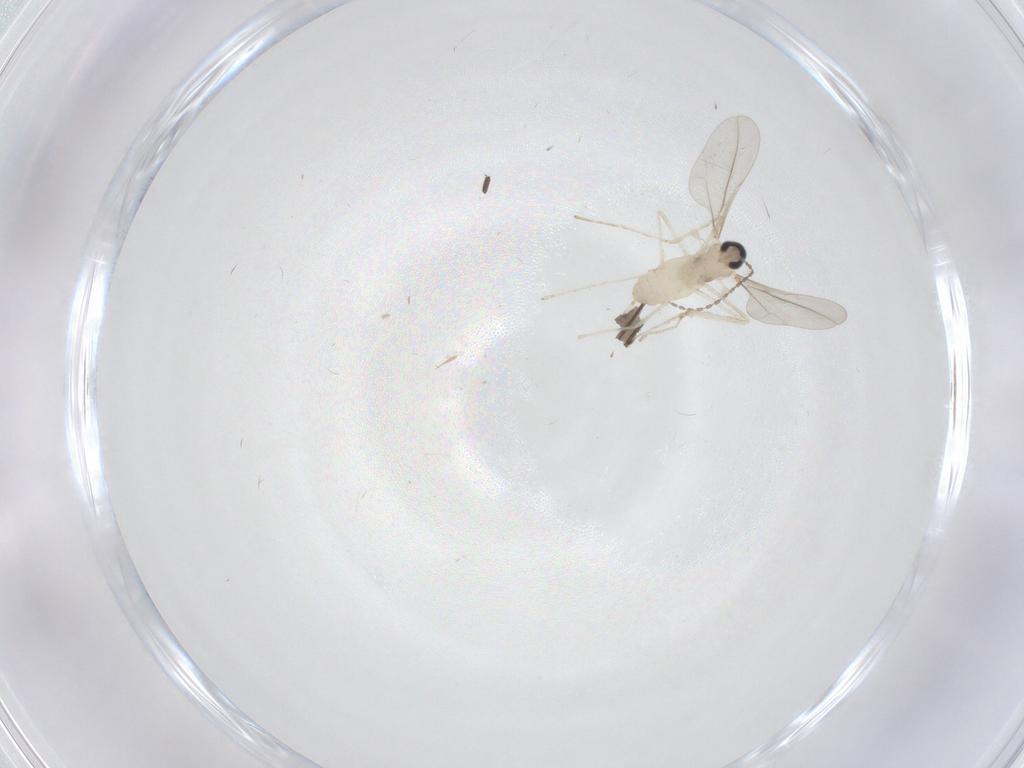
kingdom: Animalia
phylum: Arthropoda
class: Insecta
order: Diptera
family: Cecidomyiidae
